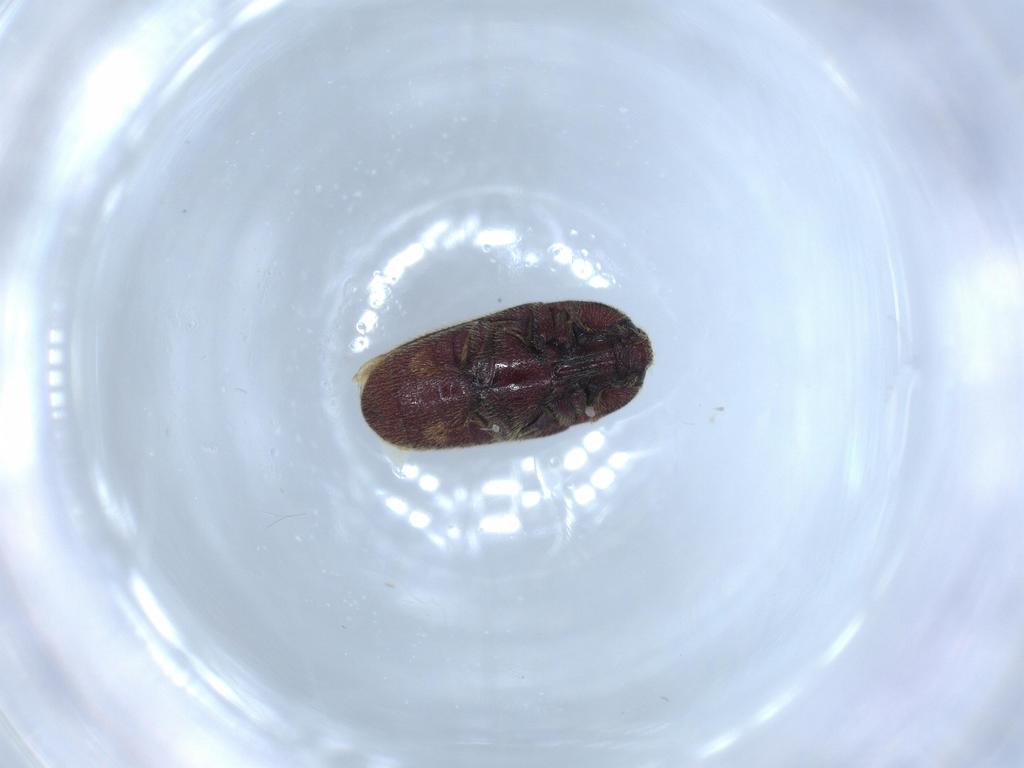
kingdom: Animalia
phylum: Arthropoda
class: Insecta
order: Coleoptera
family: Throscidae
